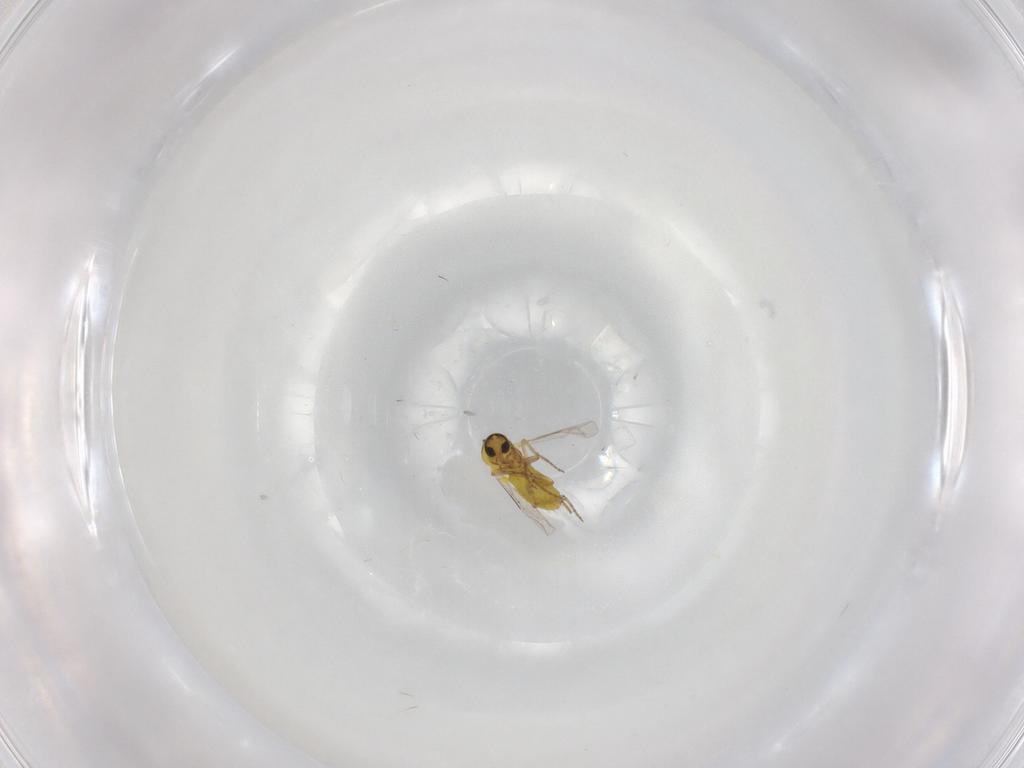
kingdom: Animalia
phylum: Arthropoda
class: Insecta
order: Diptera
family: Ceratopogonidae
